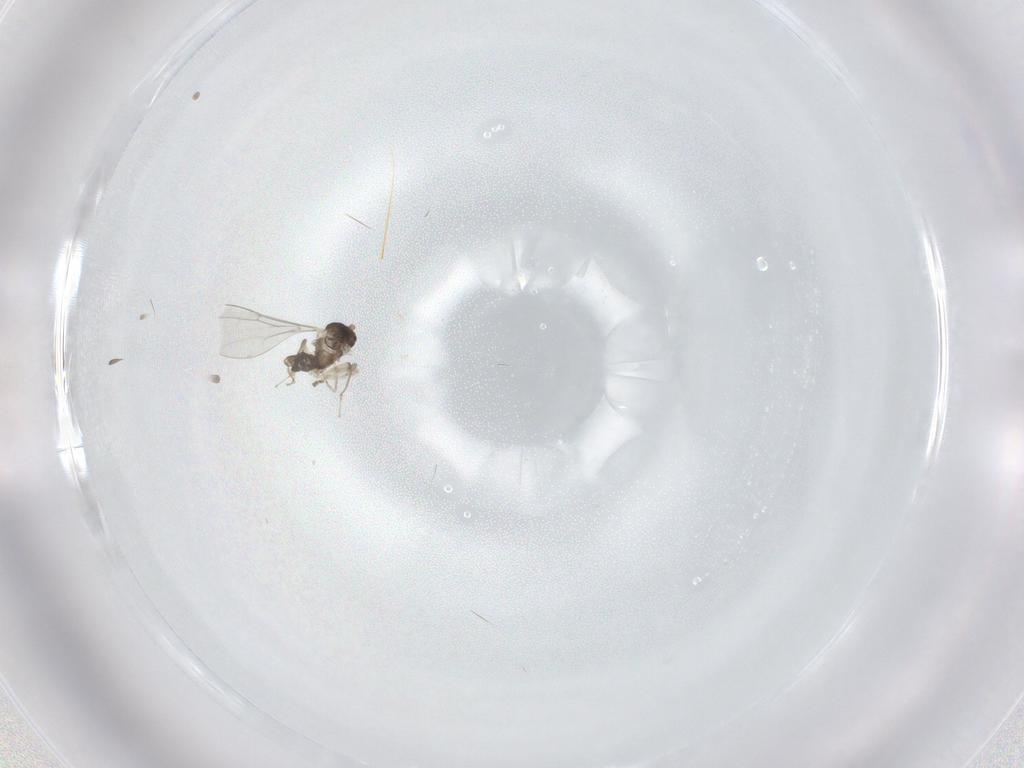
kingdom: Animalia
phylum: Arthropoda
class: Insecta
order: Diptera
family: Cecidomyiidae
